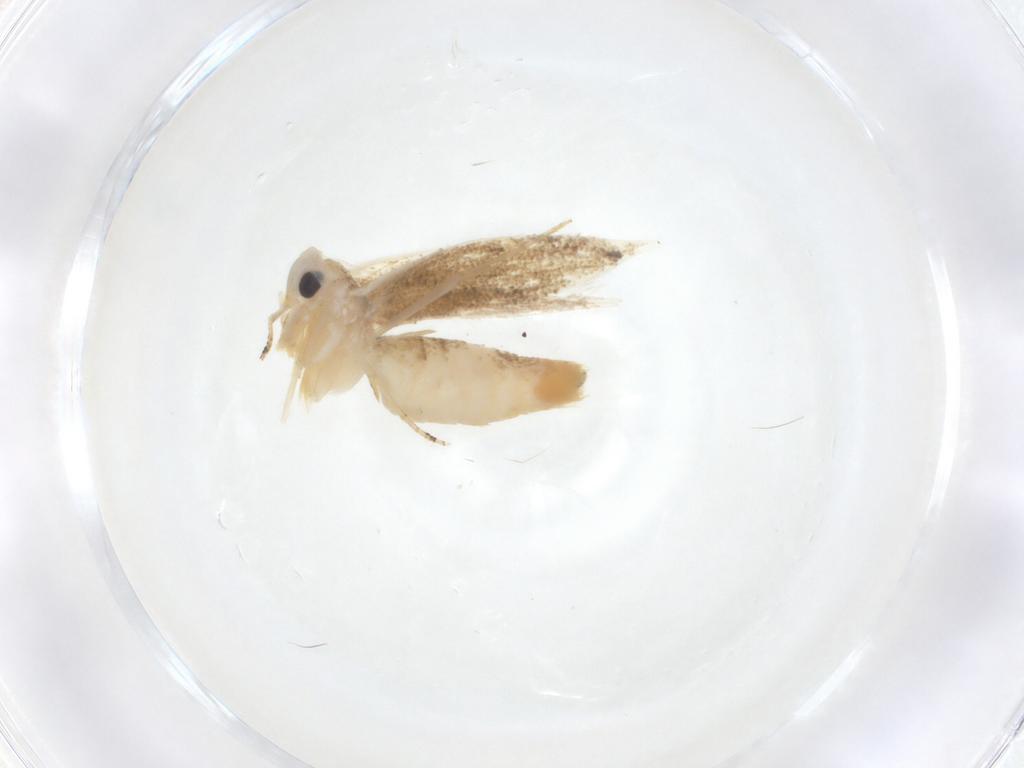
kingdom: Animalia
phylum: Arthropoda
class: Insecta
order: Lepidoptera
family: Bucculatricidae
